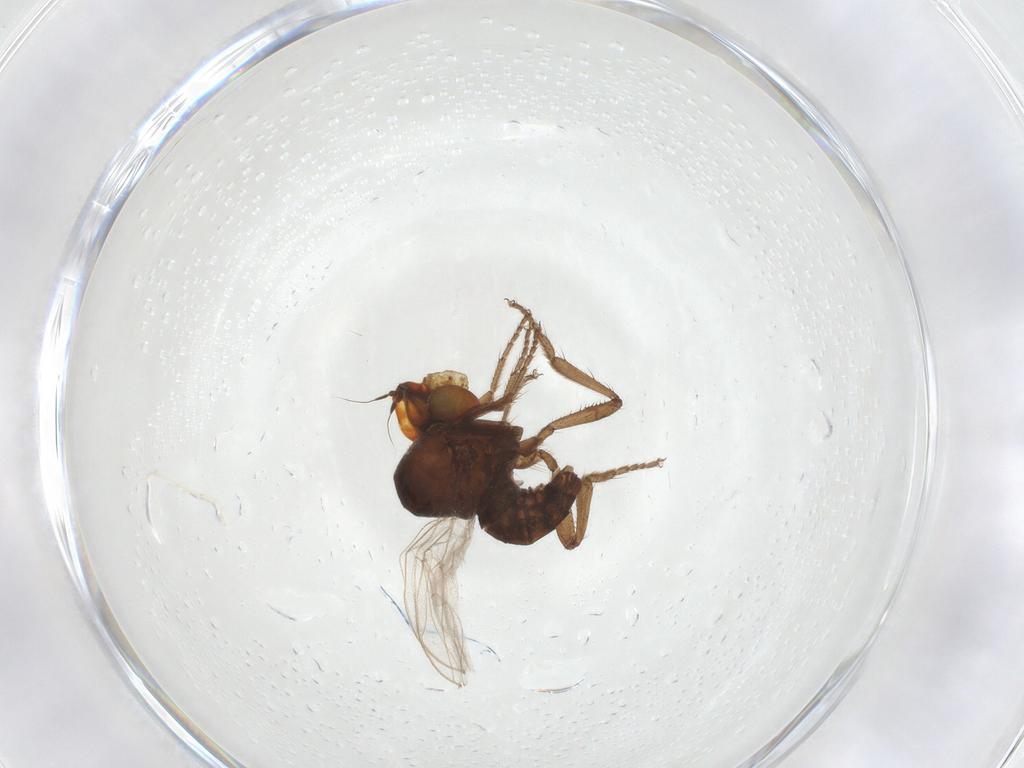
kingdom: Animalia
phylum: Arthropoda
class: Insecta
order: Diptera
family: Hybotidae
